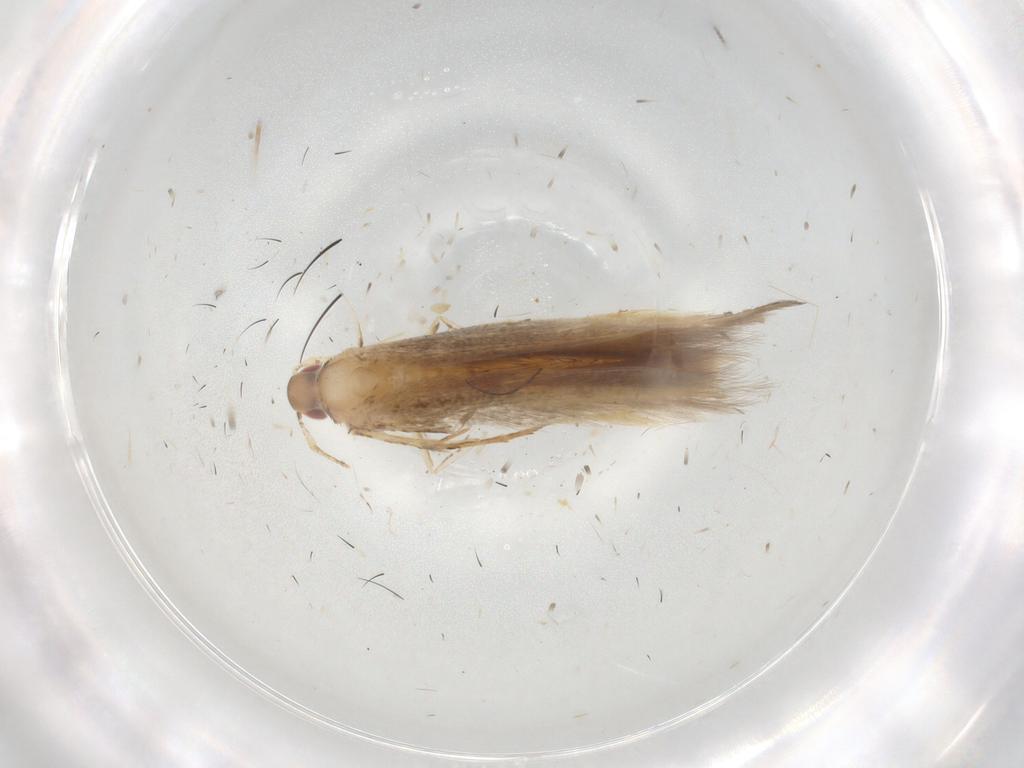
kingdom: Animalia
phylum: Arthropoda
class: Insecta
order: Lepidoptera
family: Cosmopterigidae
